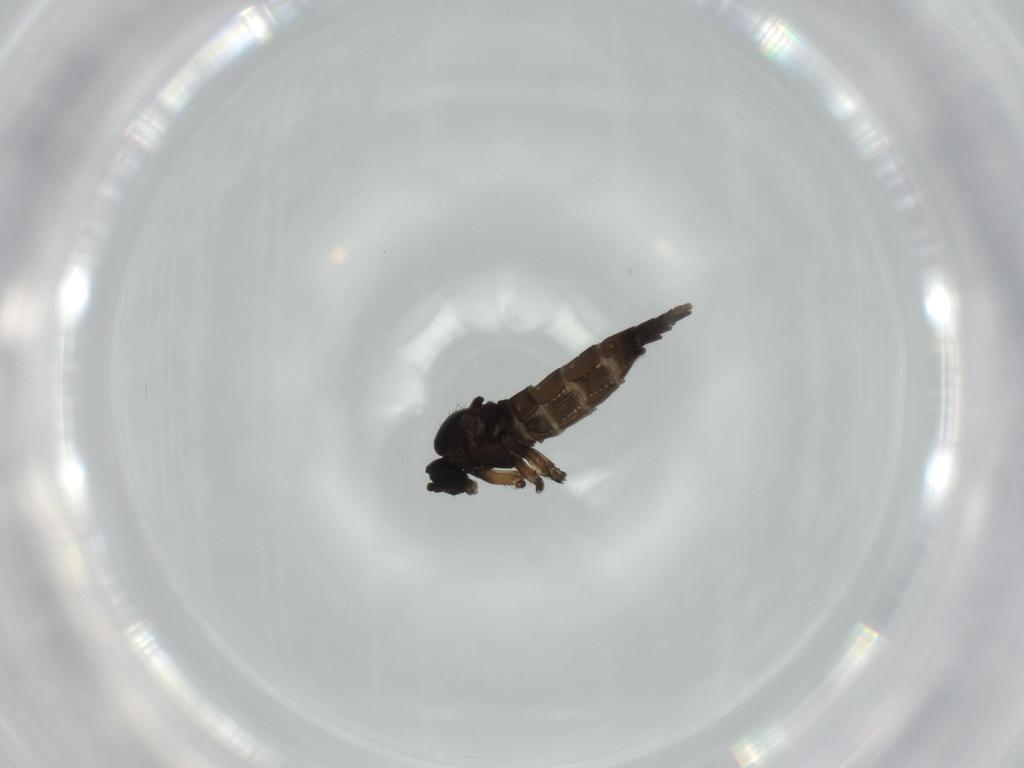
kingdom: Animalia
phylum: Arthropoda
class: Insecta
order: Diptera
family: Sciaridae
